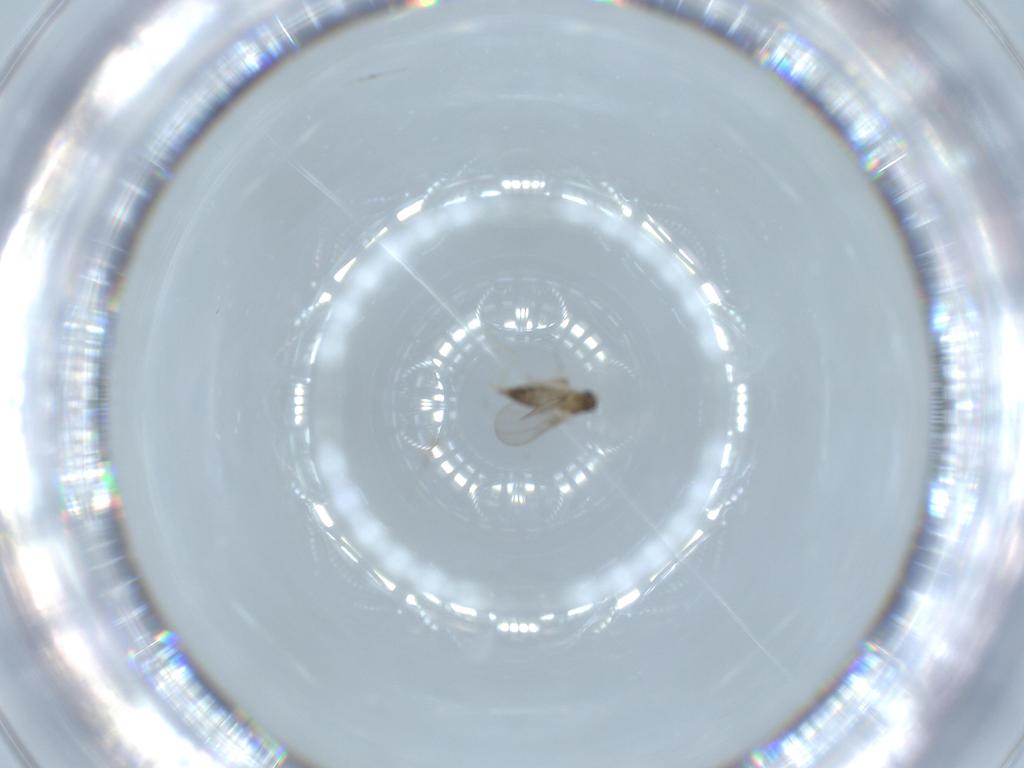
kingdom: Animalia
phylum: Arthropoda
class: Insecta
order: Diptera
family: Cecidomyiidae
